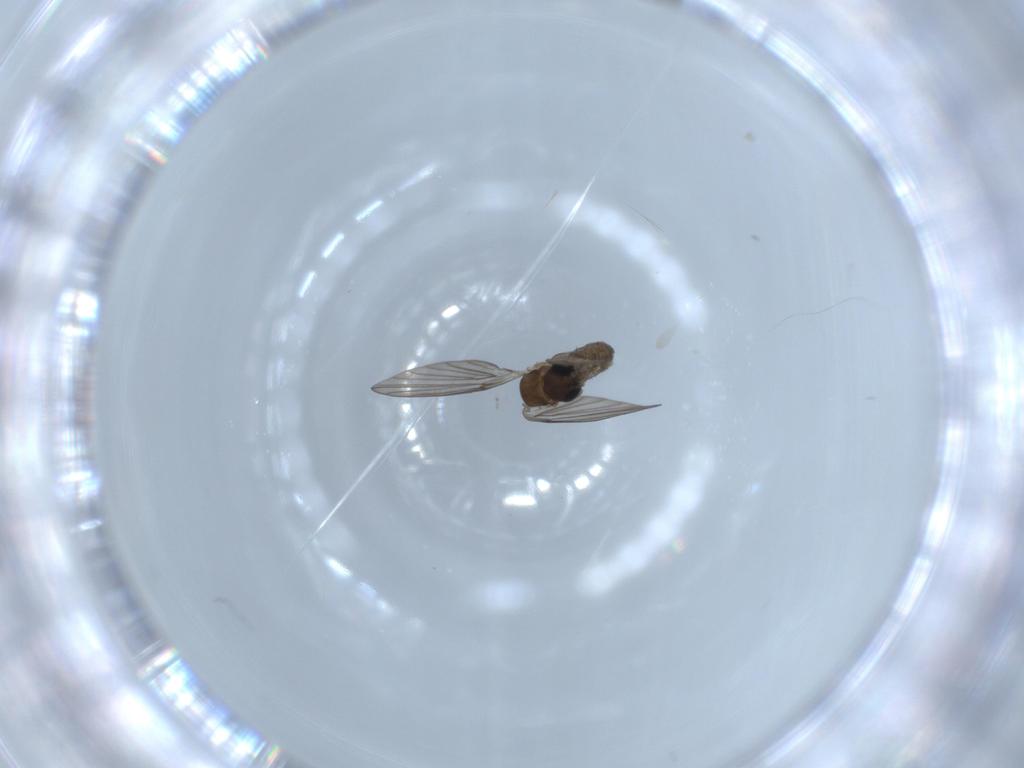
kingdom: Animalia
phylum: Arthropoda
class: Insecta
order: Diptera
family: Psychodidae
